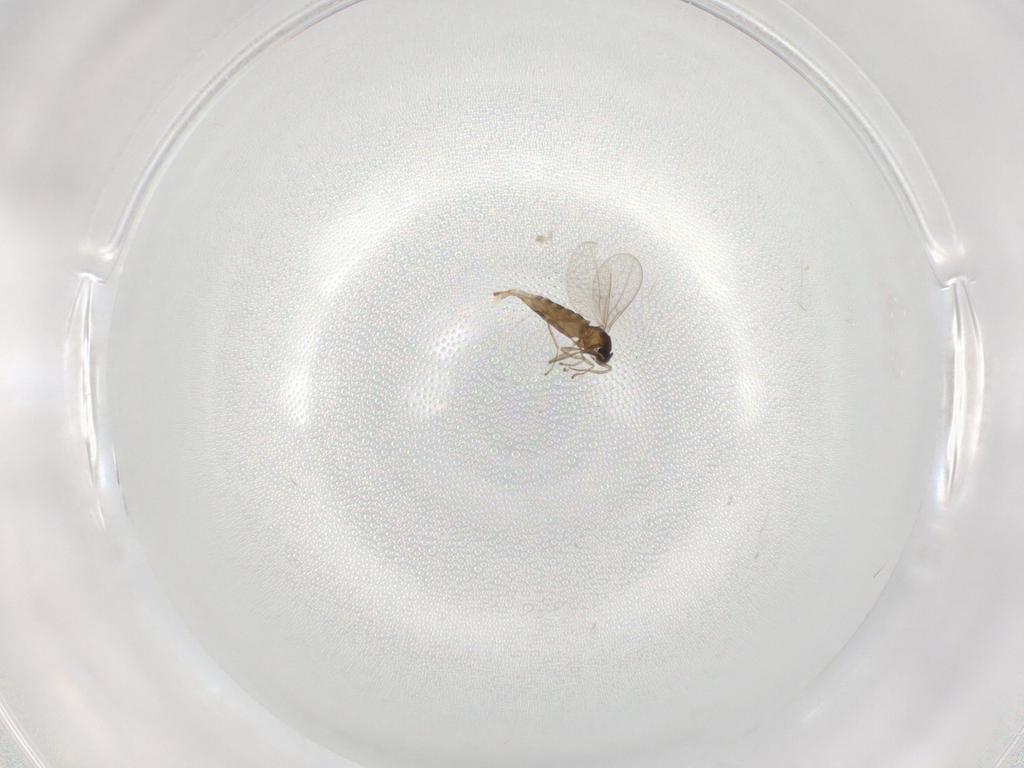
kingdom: Animalia
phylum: Arthropoda
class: Insecta
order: Diptera
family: Cecidomyiidae
